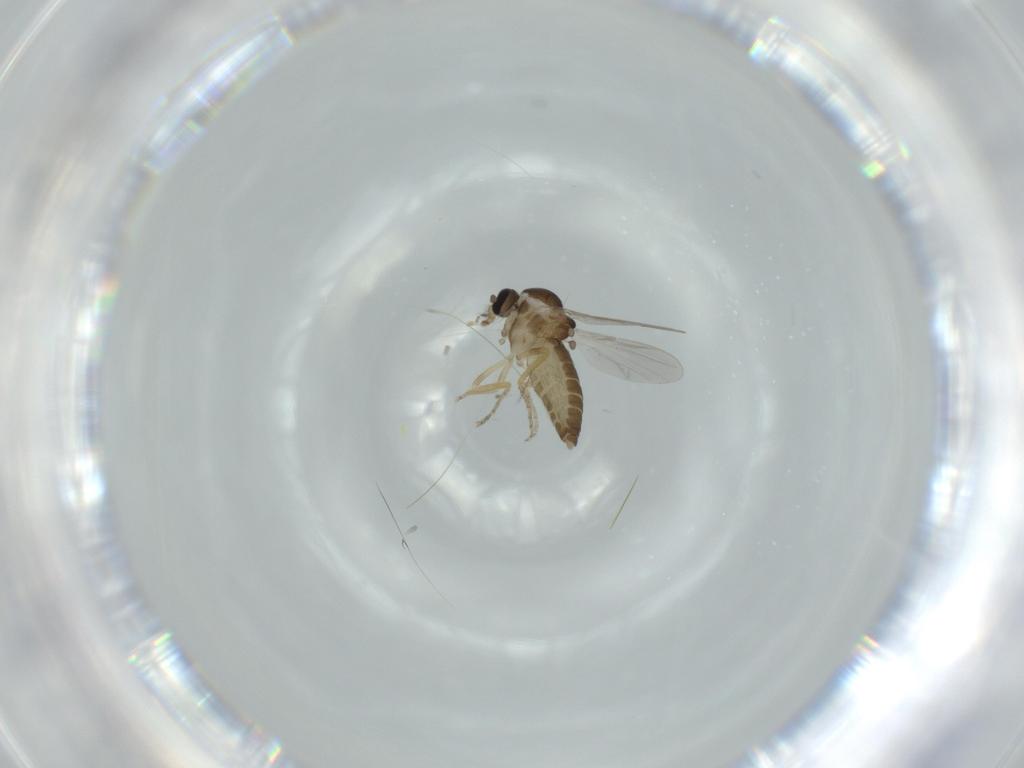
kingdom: Animalia
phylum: Arthropoda
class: Insecta
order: Diptera
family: Ceratopogonidae
